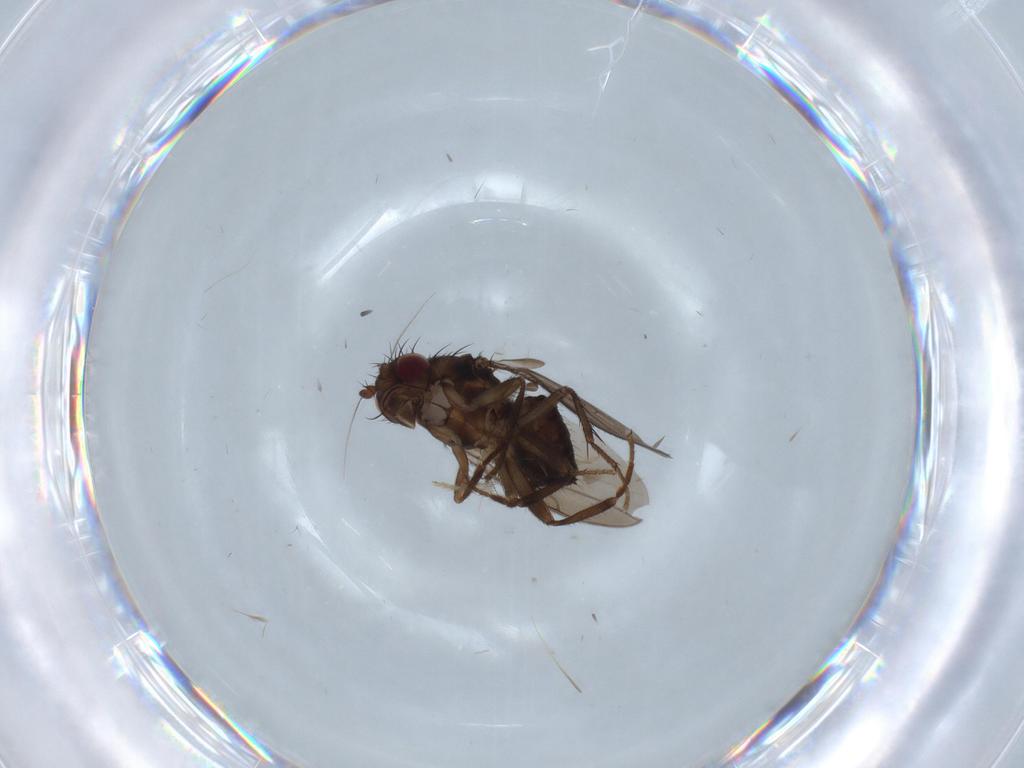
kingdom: Animalia
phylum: Arthropoda
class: Insecta
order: Diptera
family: Chironomidae
